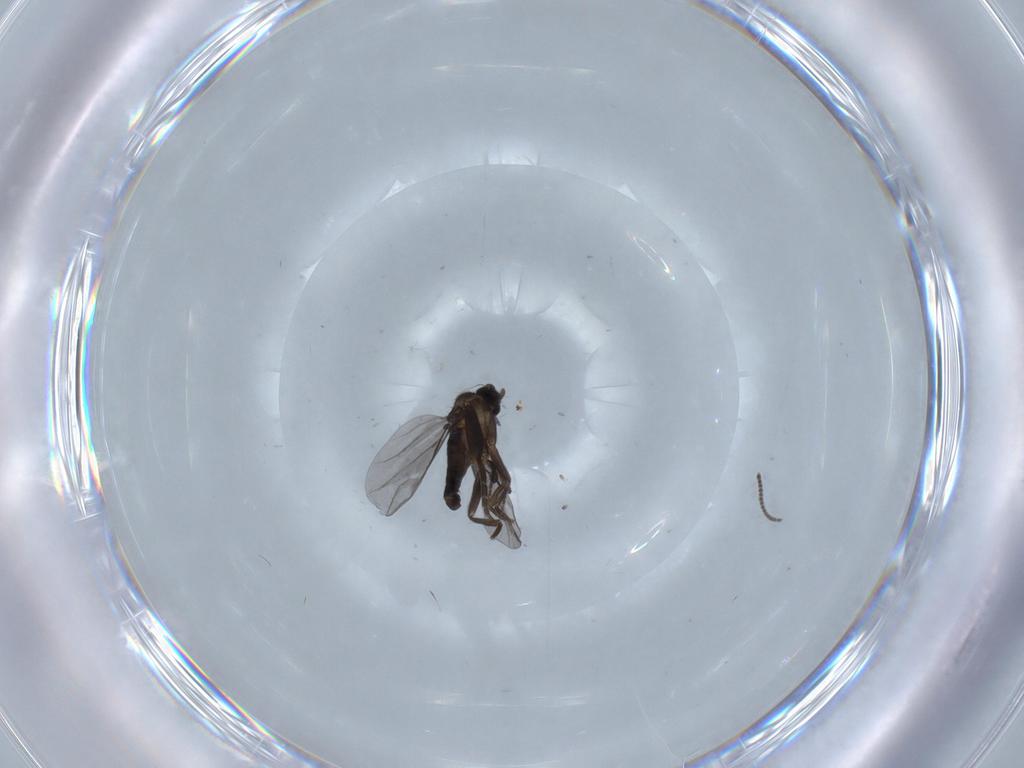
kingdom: Animalia
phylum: Arthropoda
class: Insecta
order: Diptera
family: Phoridae
